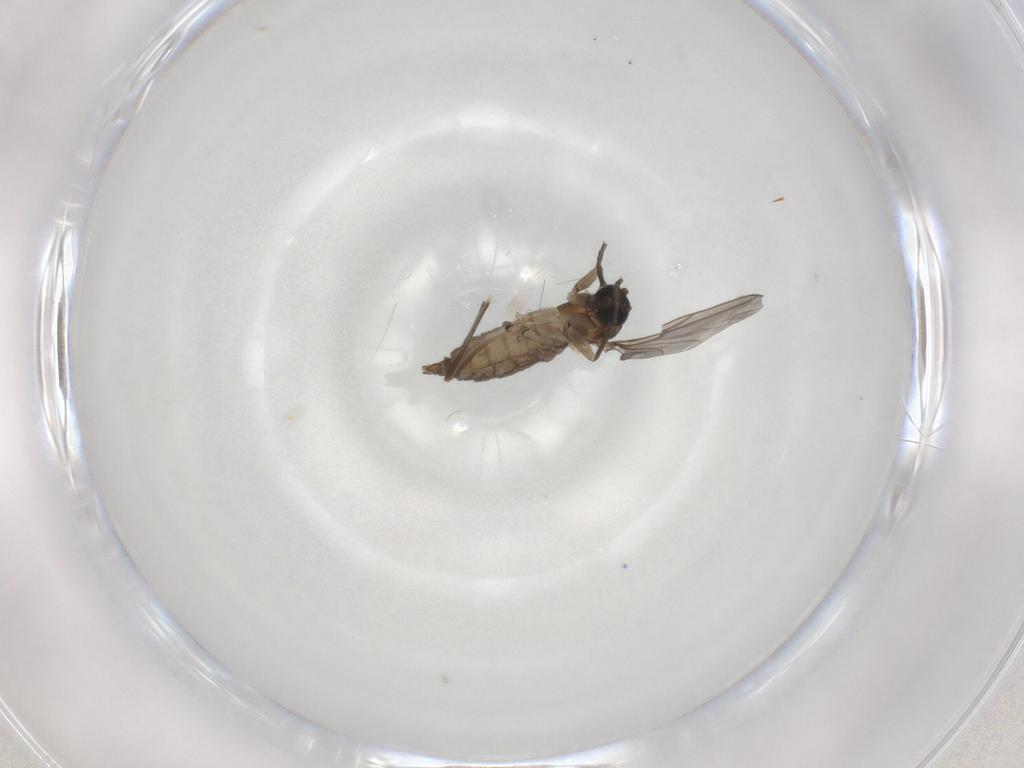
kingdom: Animalia
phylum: Arthropoda
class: Insecta
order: Diptera
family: Sciaridae
